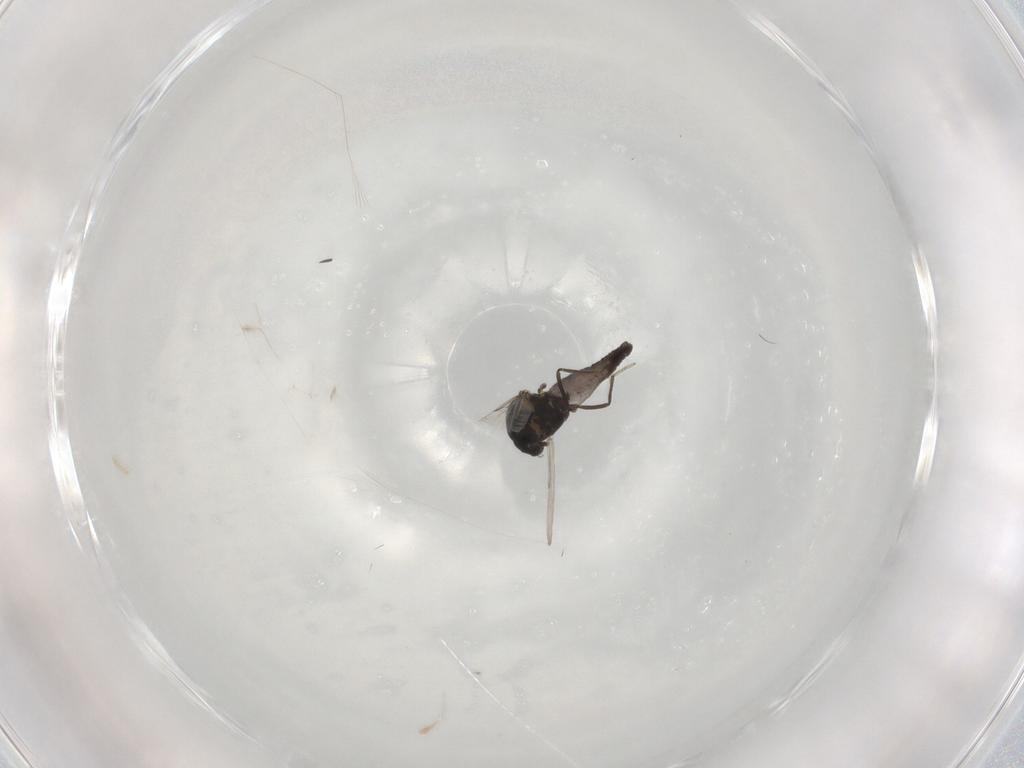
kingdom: Animalia
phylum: Arthropoda
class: Insecta
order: Diptera
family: Ceratopogonidae
